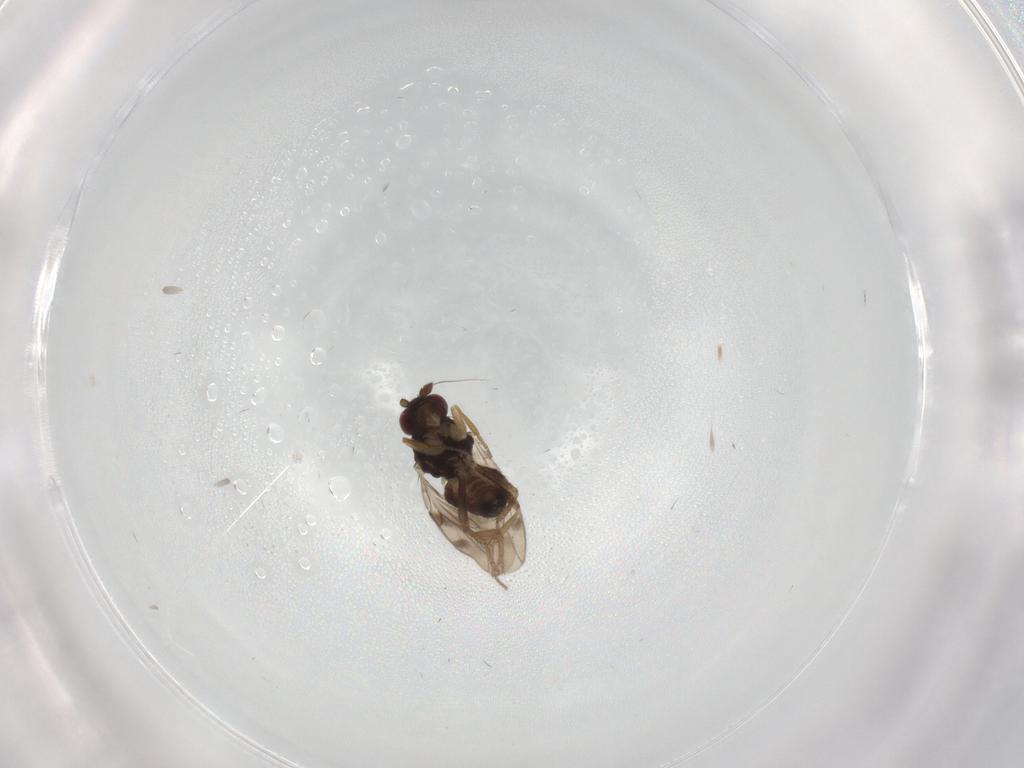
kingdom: Animalia
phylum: Arthropoda
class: Insecta
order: Diptera
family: Sphaeroceridae
